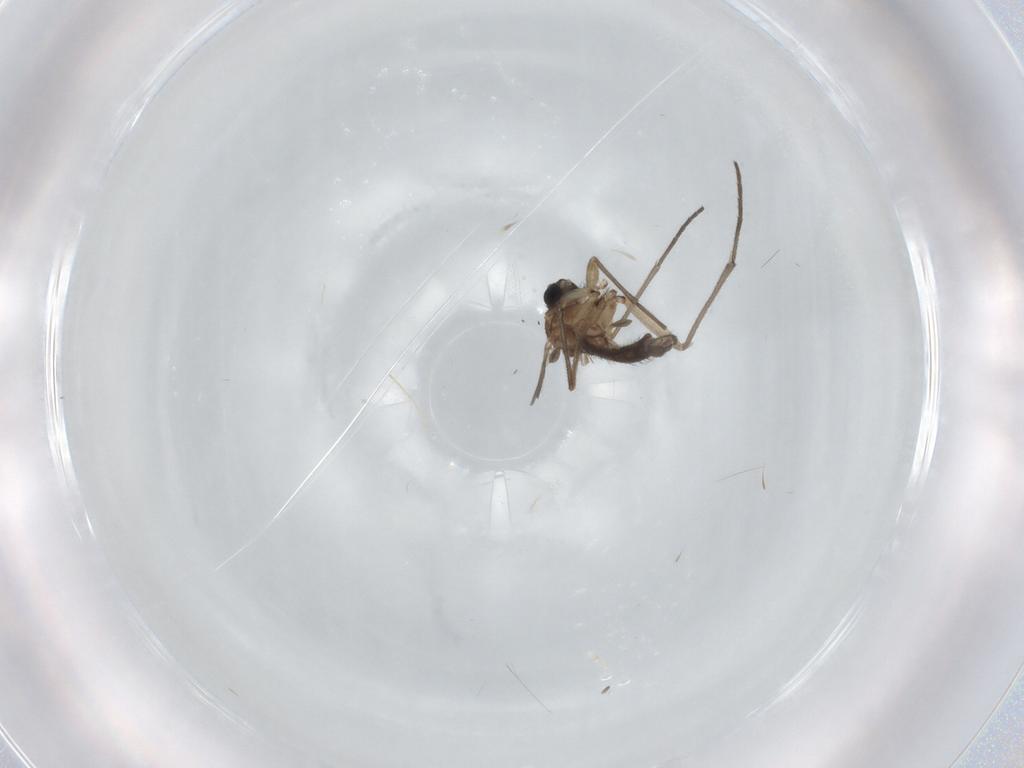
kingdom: Animalia
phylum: Arthropoda
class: Insecta
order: Diptera
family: Sciaridae
